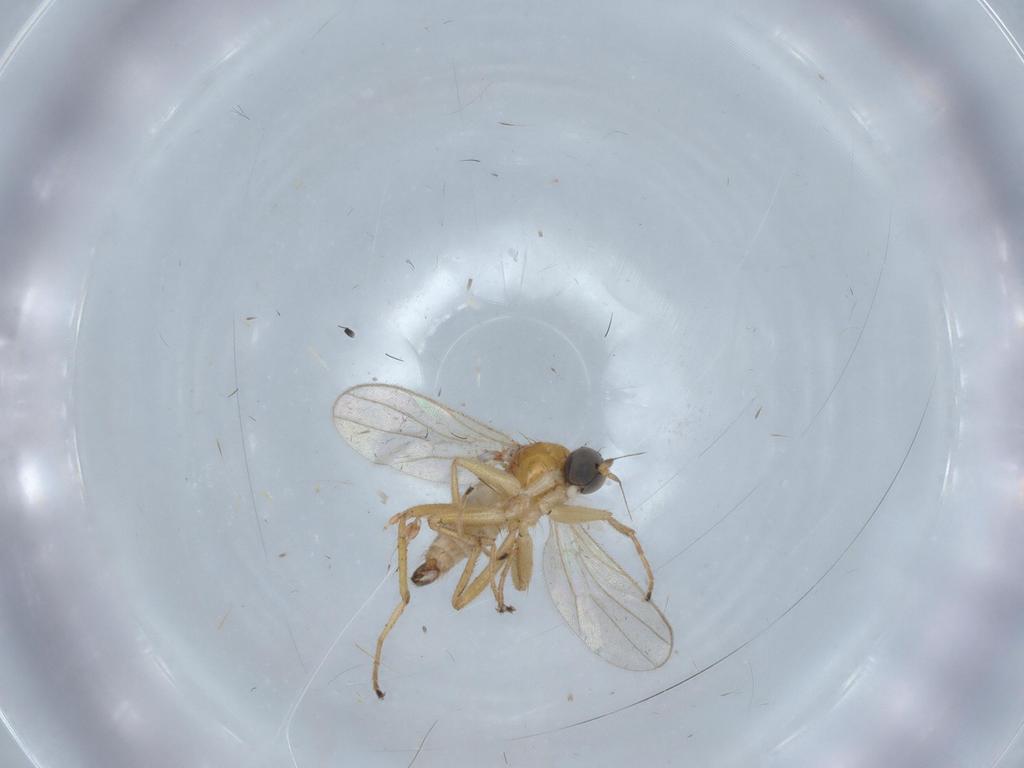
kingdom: Animalia
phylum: Arthropoda
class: Insecta
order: Diptera
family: Hybotidae
